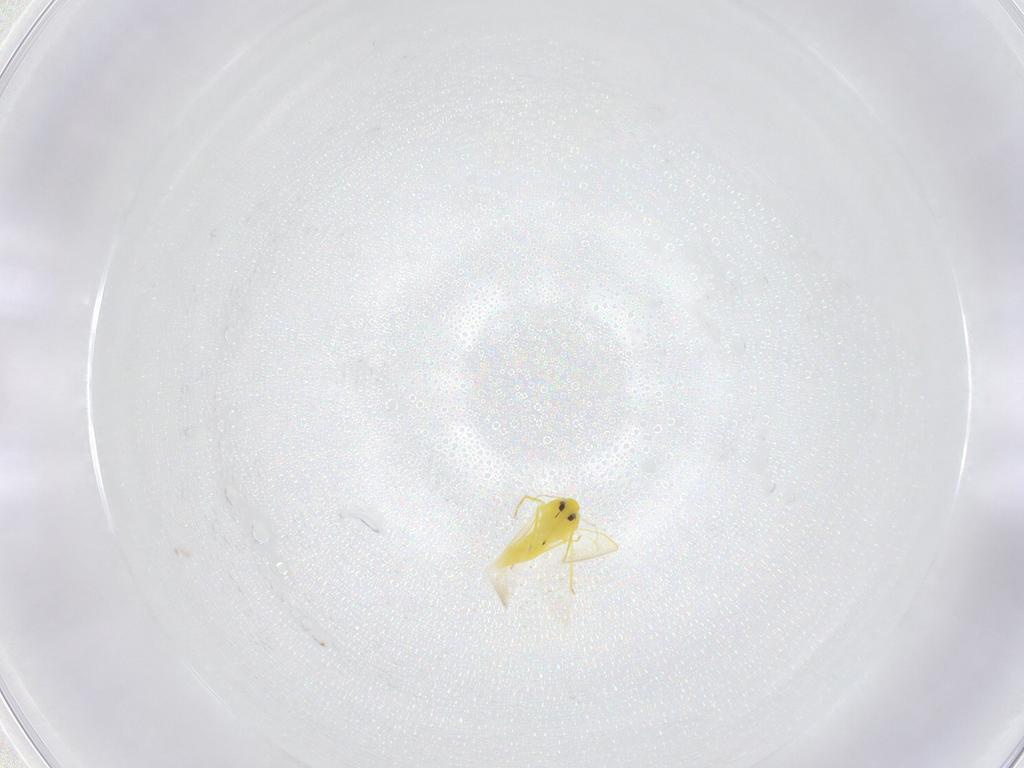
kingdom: Animalia
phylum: Arthropoda
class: Insecta
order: Hemiptera
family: Aleyrodidae
